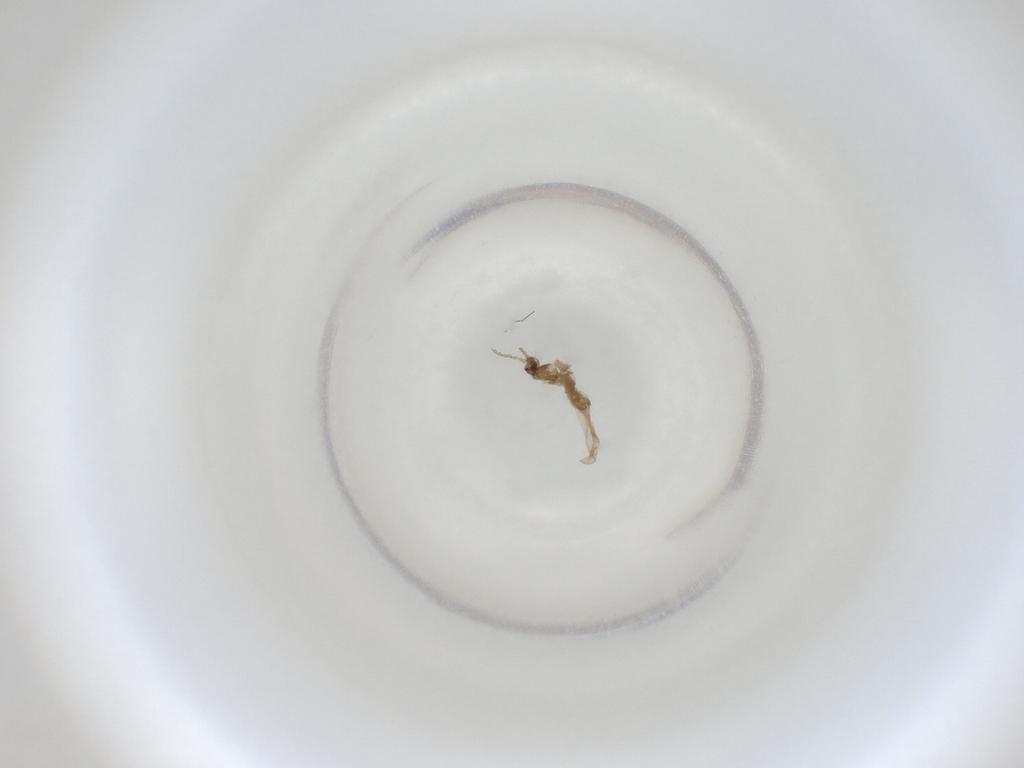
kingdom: Animalia
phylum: Arthropoda
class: Insecta
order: Diptera
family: Cecidomyiidae
